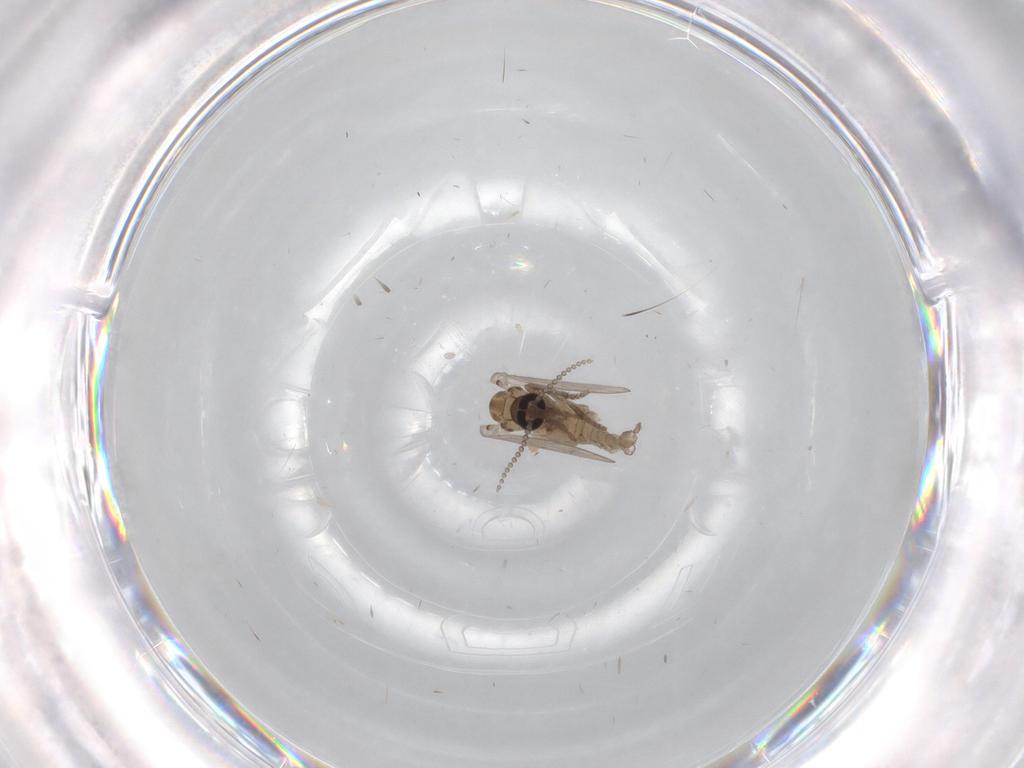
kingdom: Animalia
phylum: Arthropoda
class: Insecta
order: Diptera
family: Psychodidae
